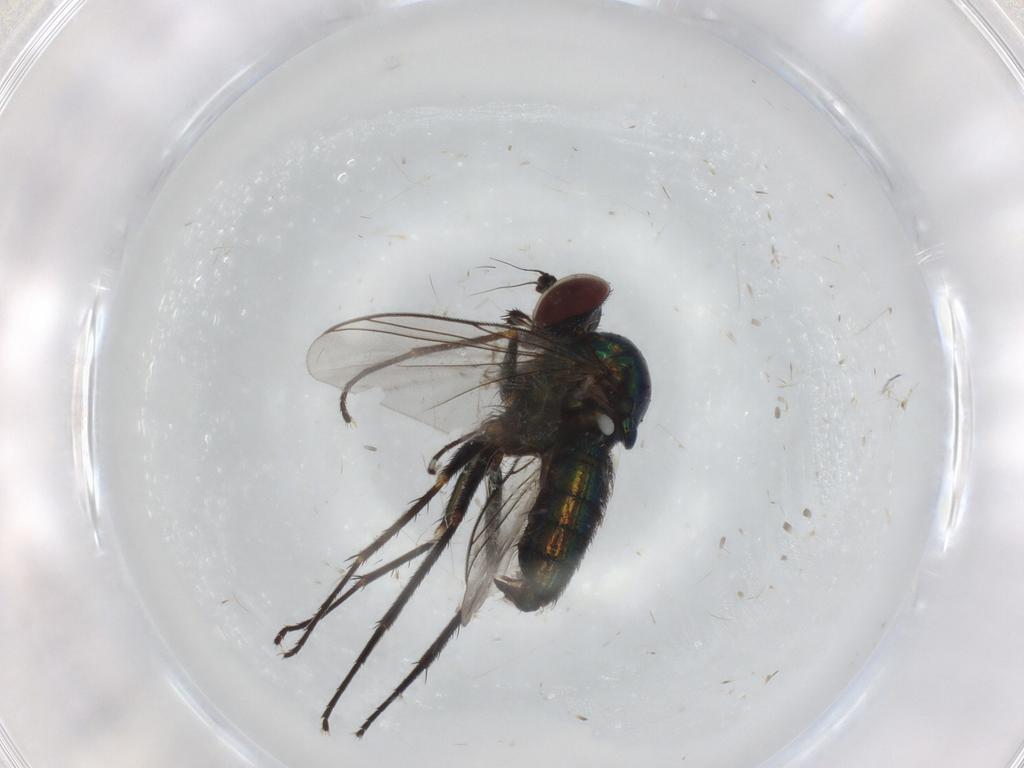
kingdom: Animalia
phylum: Arthropoda
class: Insecta
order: Diptera
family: Dolichopodidae
